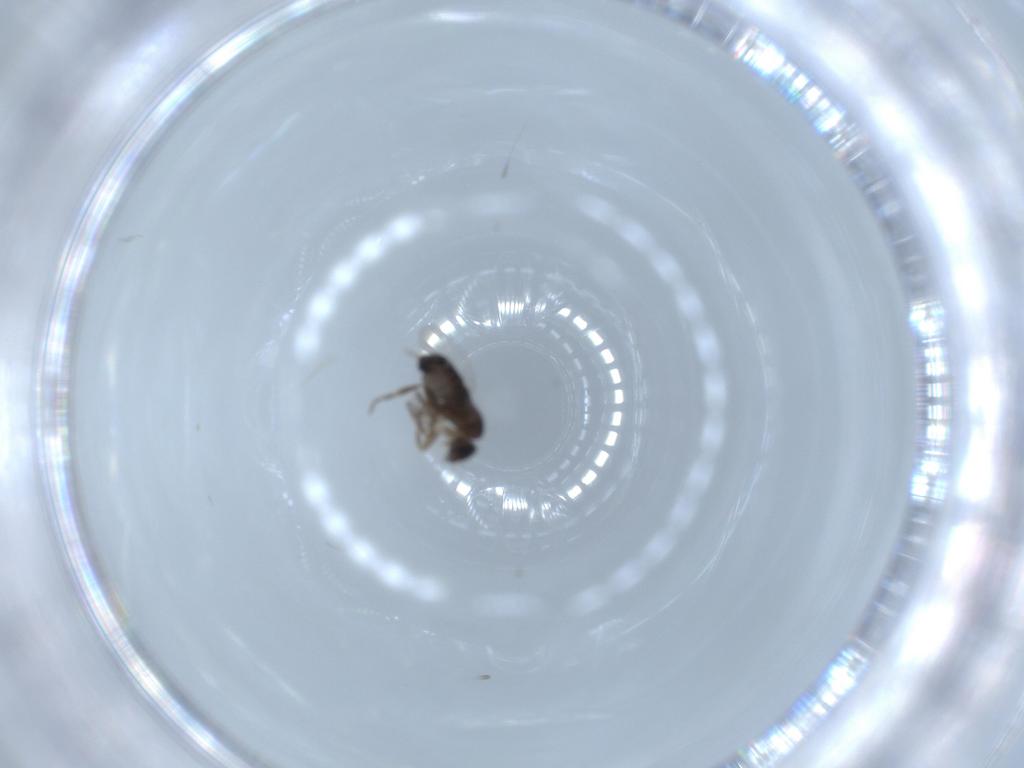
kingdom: Animalia
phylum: Arthropoda
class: Insecta
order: Diptera
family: Phoridae
